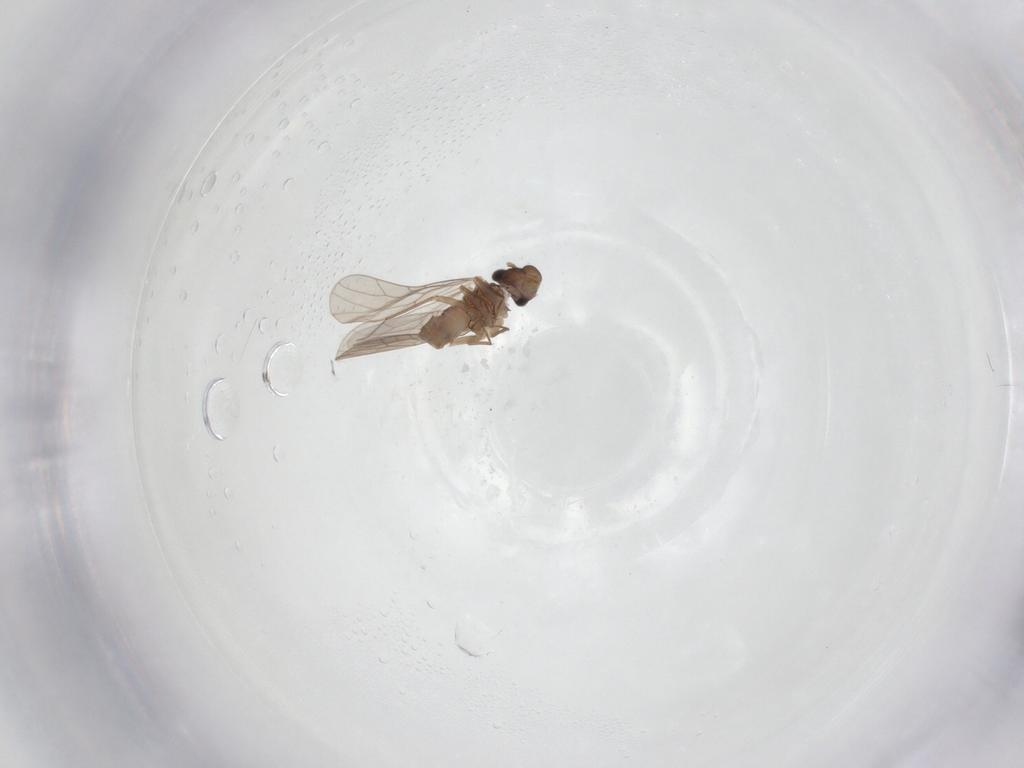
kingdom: Animalia
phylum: Arthropoda
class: Insecta
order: Psocodea
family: Lepidopsocidae
